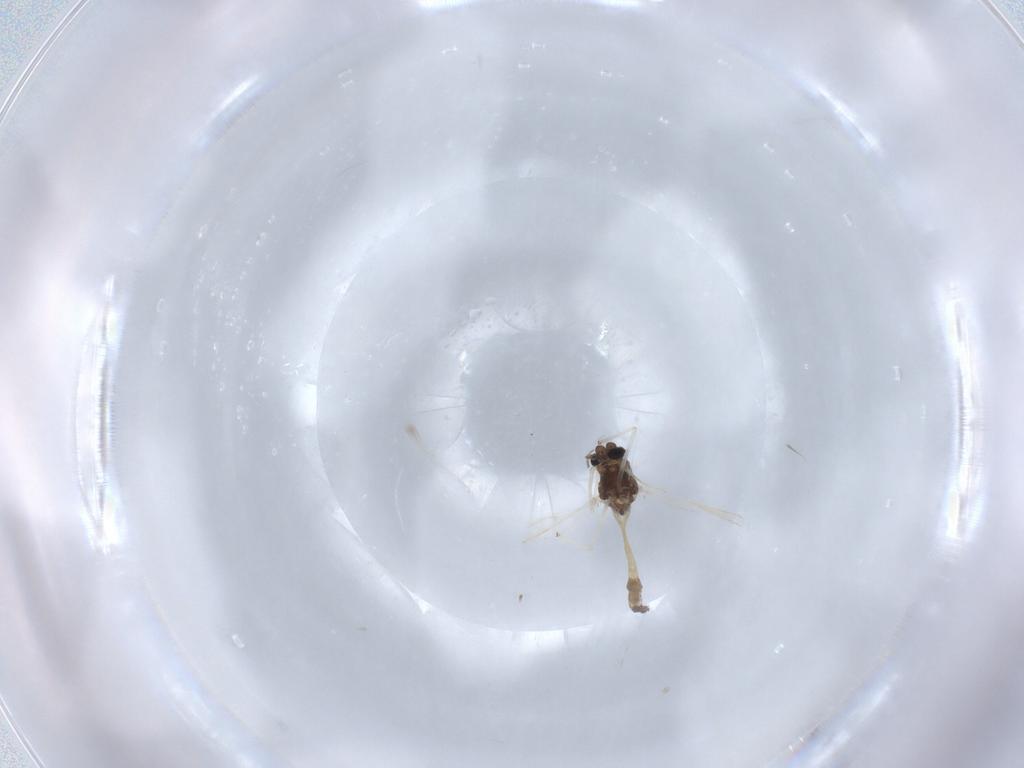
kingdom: Animalia
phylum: Arthropoda
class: Insecta
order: Diptera
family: Chironomidae
